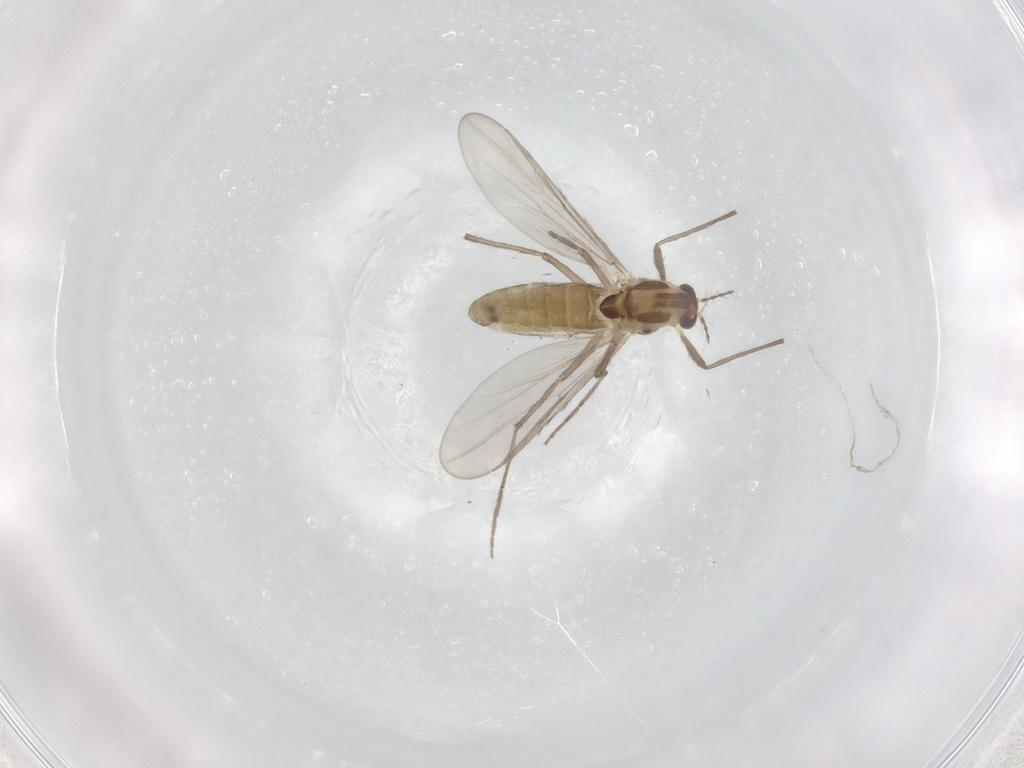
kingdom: Animalia
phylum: Arthropoda
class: Insecta
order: Diptera
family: Chironomidae
